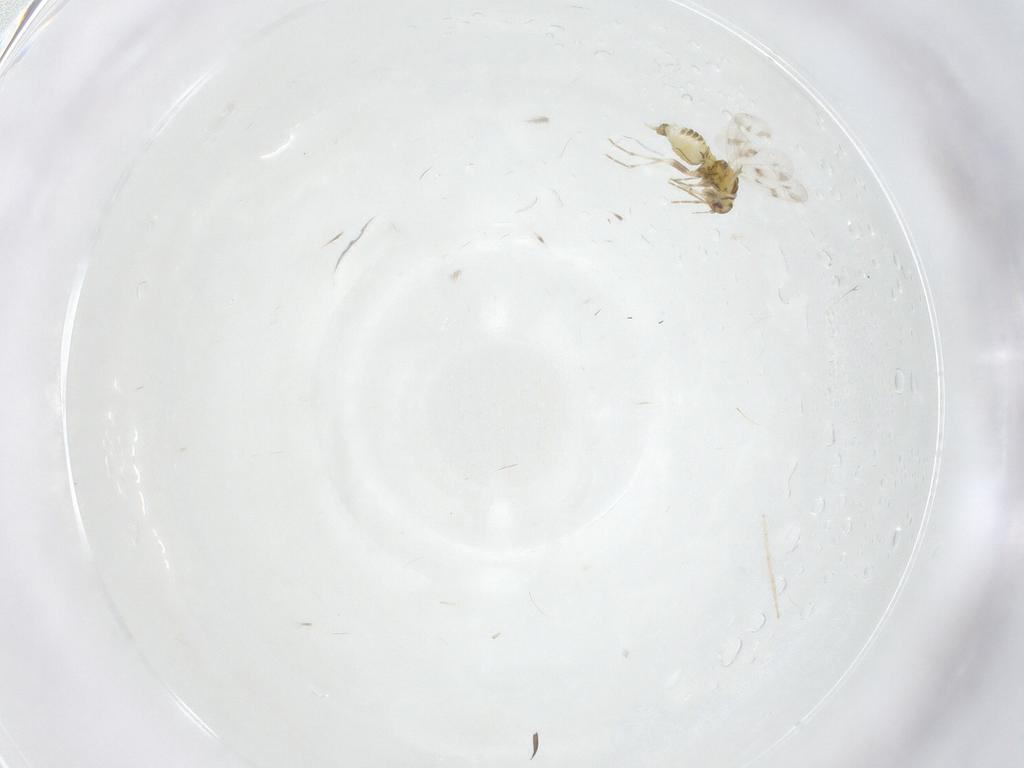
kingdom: Animalia
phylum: Arthropoda
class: Insecta
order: Hemiptera
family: Aleyrodidae
